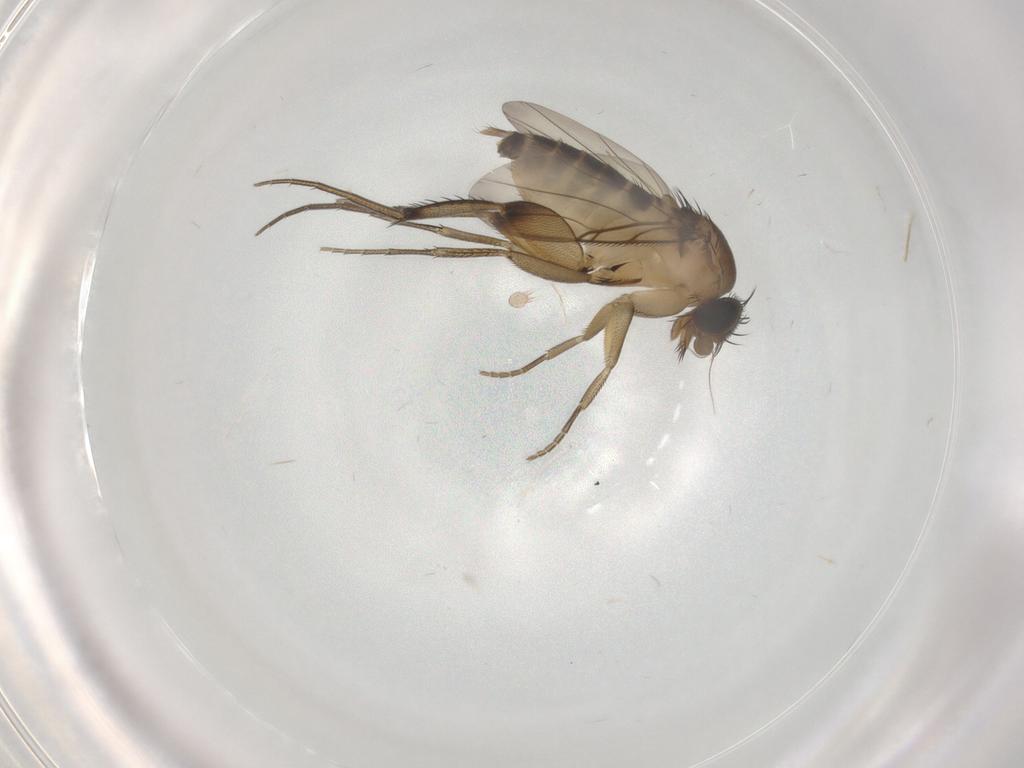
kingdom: Animalia
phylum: Arthropoda
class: Insecta
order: Diptera
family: Phoridae
